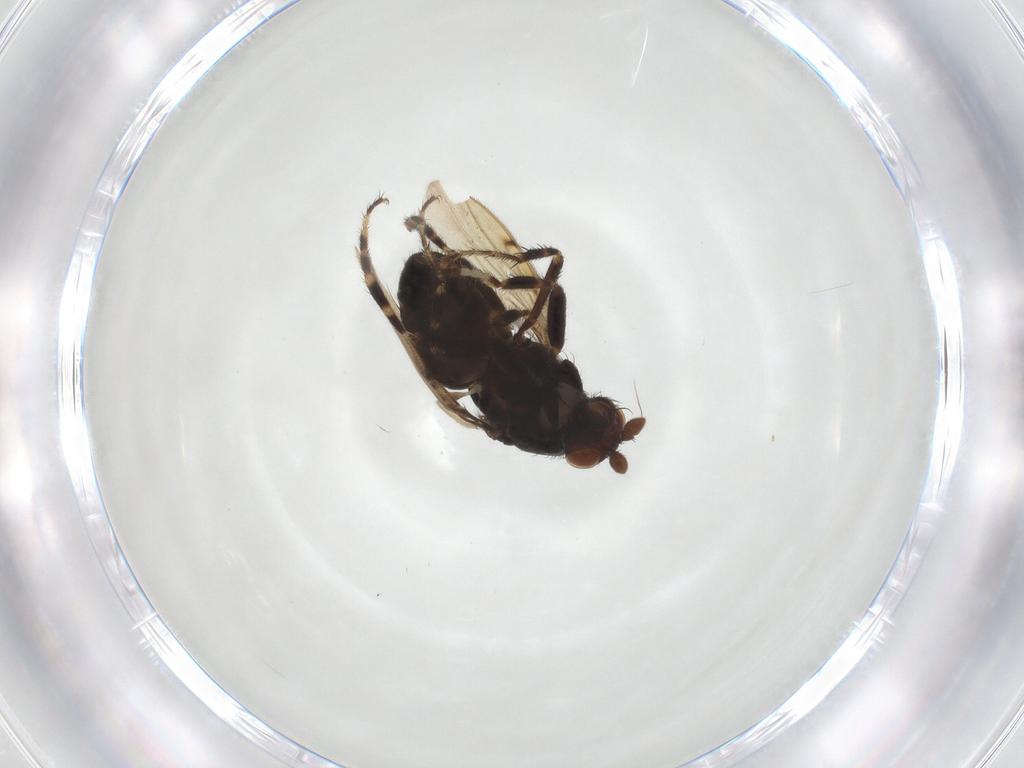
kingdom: Animalia
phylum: Arthropoda
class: Insecta
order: Diptera
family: Sphaeroceridae
